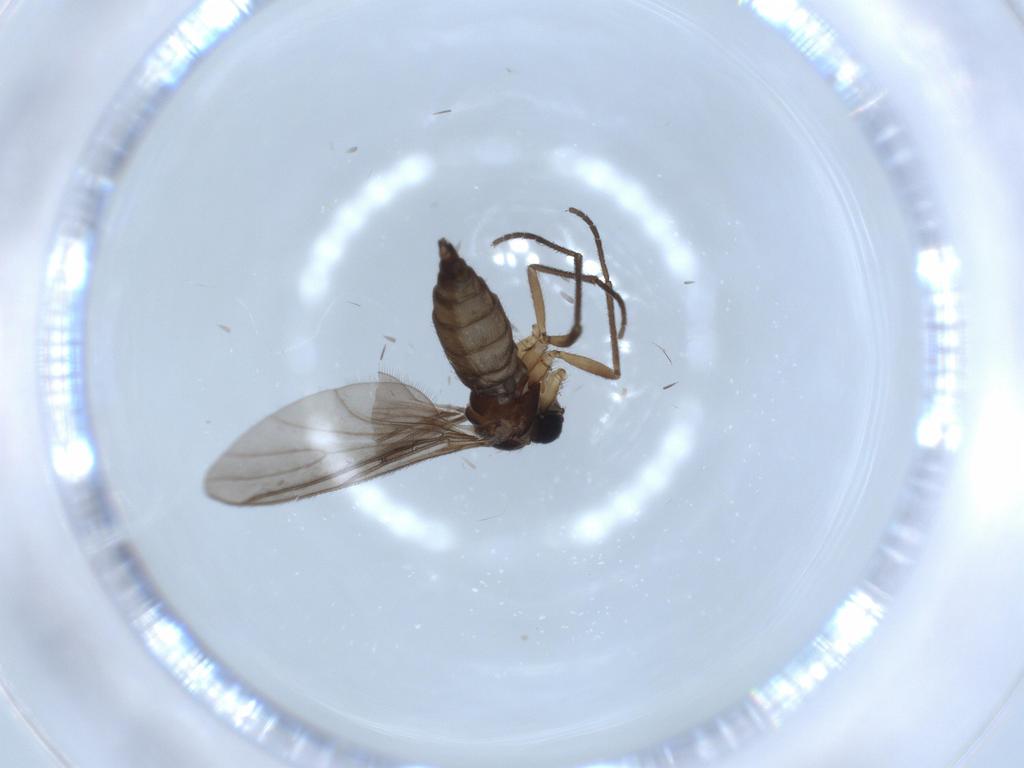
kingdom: Animalia
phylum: Arthropoda
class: Insecta
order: Diptera
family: Sciaridae
